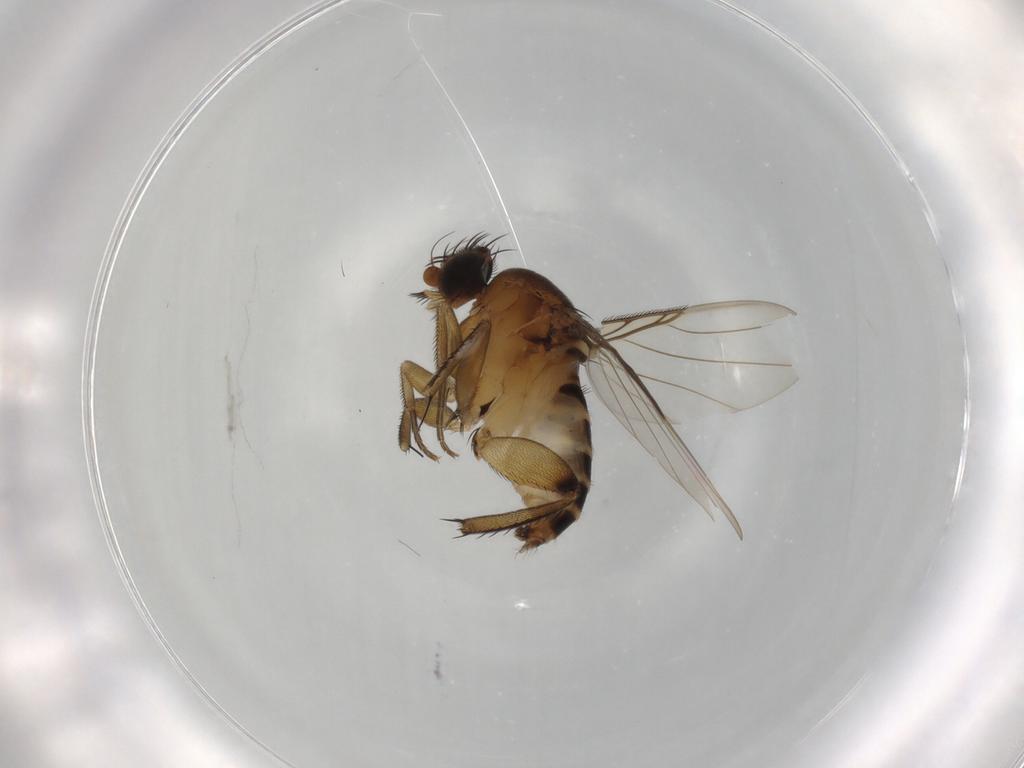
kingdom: Animalia
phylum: Arthropoda
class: Insecta
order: Diptera
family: Phoridae
